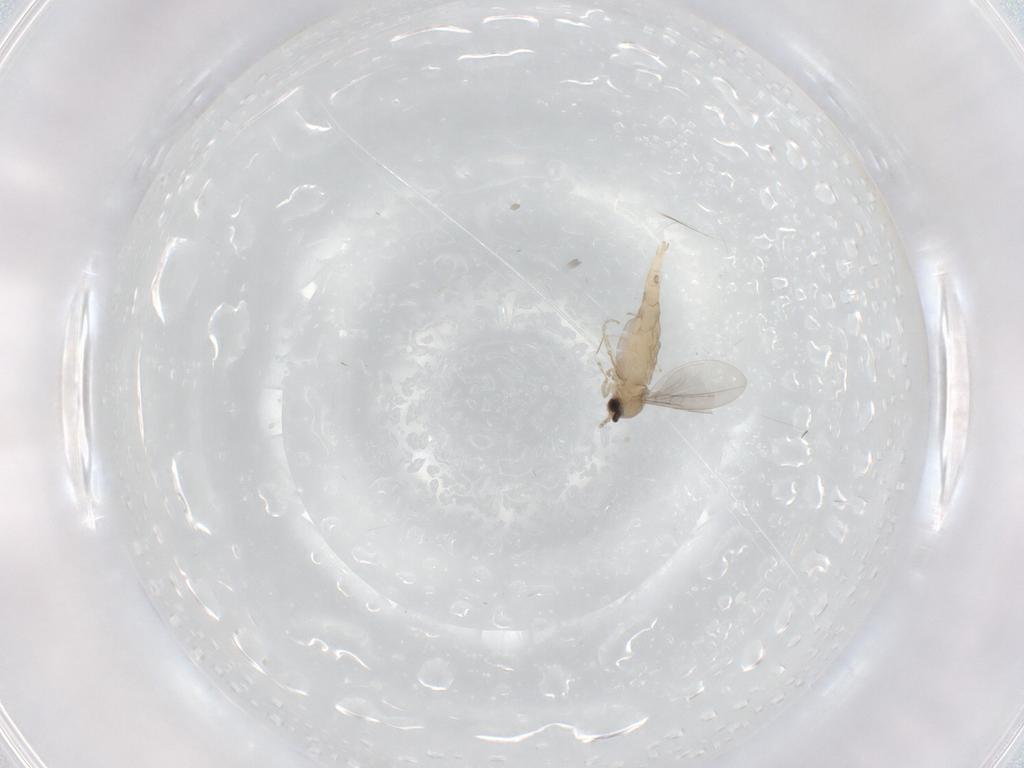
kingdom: Animalia
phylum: Arthropoda
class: Insecta
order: Diptera
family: Cecidomyiidae
